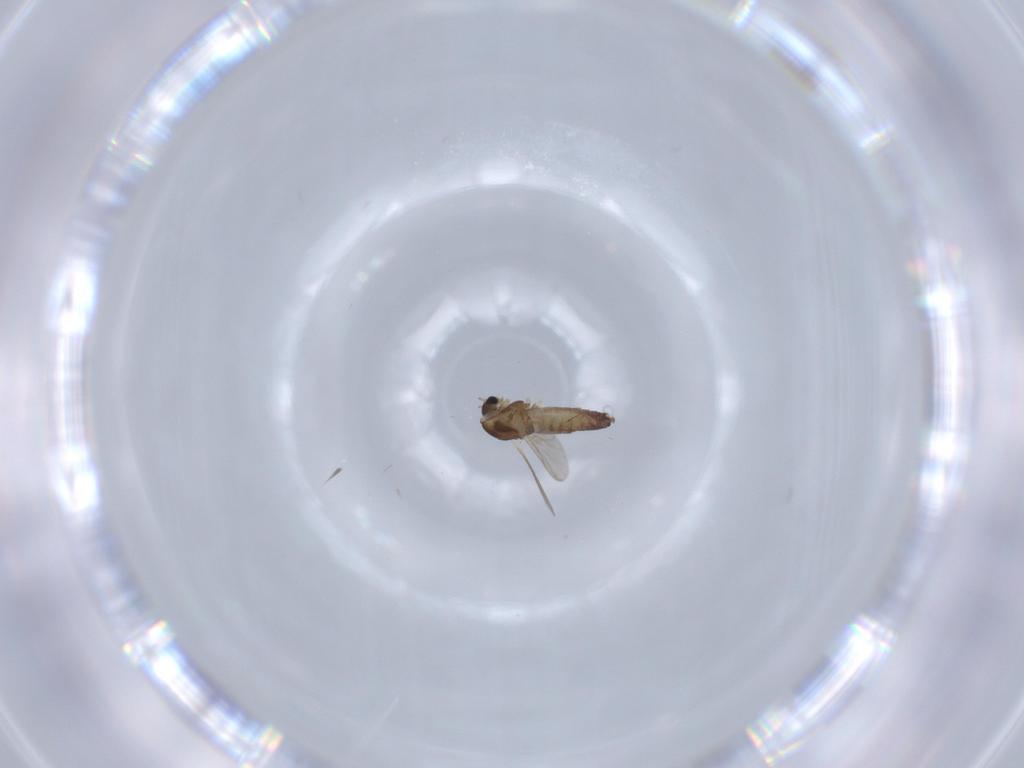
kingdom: Animalia
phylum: Arthropoda
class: Insecta
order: Diptera
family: Chironomidae
